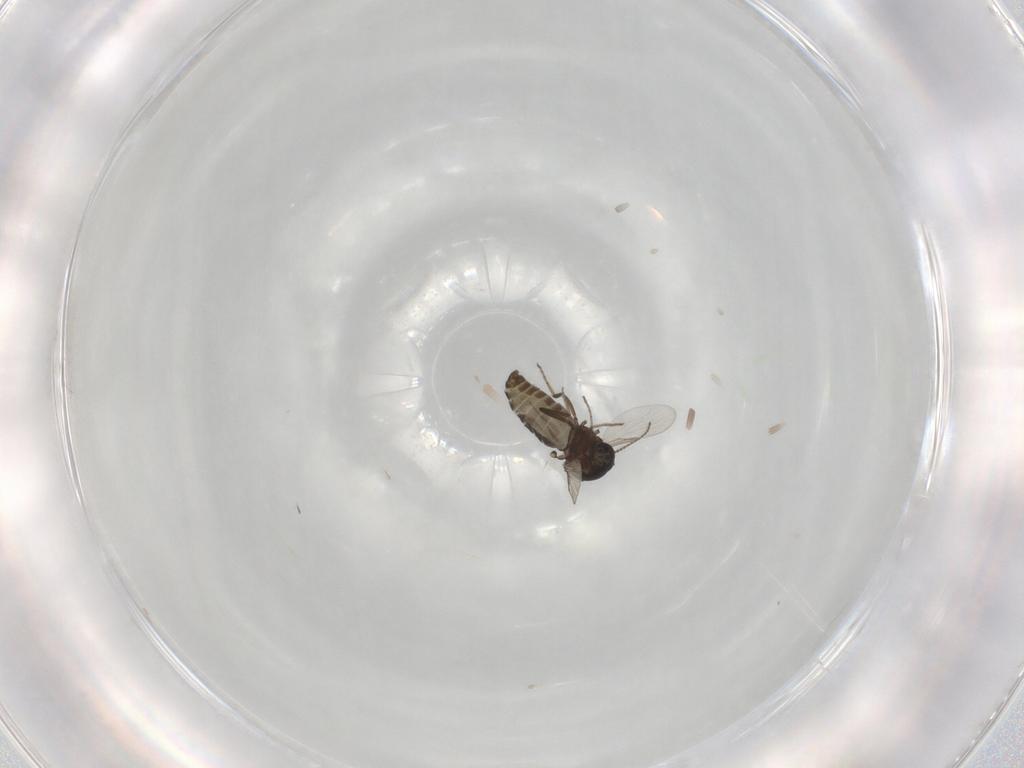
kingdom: Animalia
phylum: Arthropoda
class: Insecta
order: Diptera
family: Ceratopogonidae
